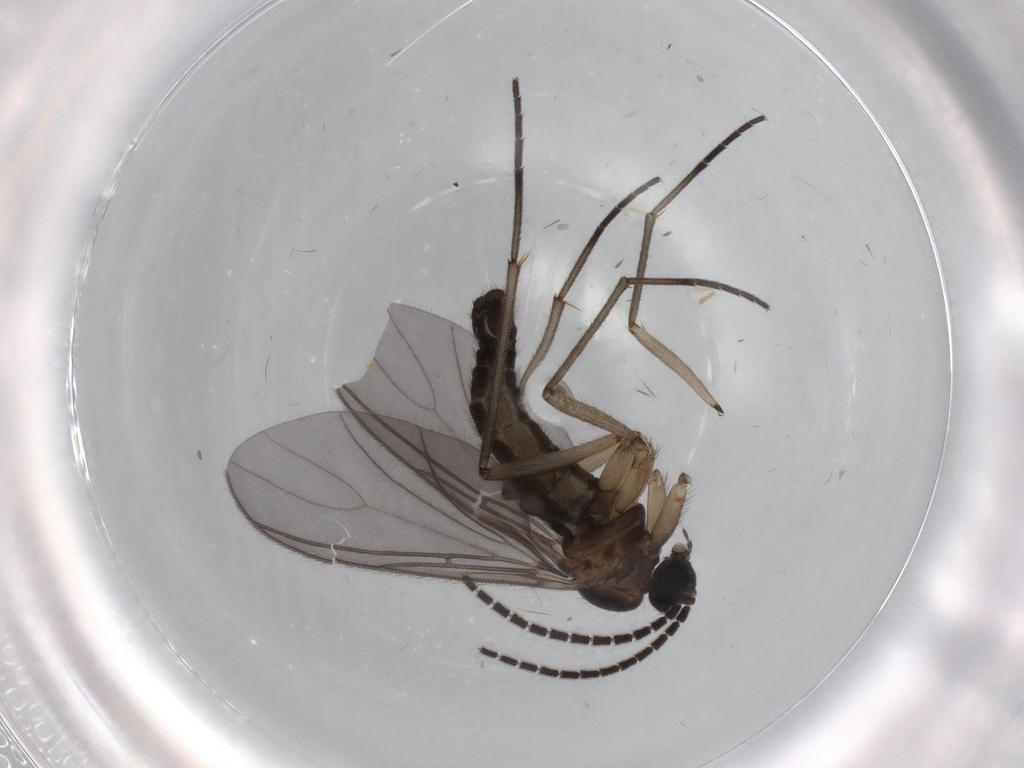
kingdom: Animalia
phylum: Arthropoda
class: Insecta
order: Diptera
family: Sciaridae
